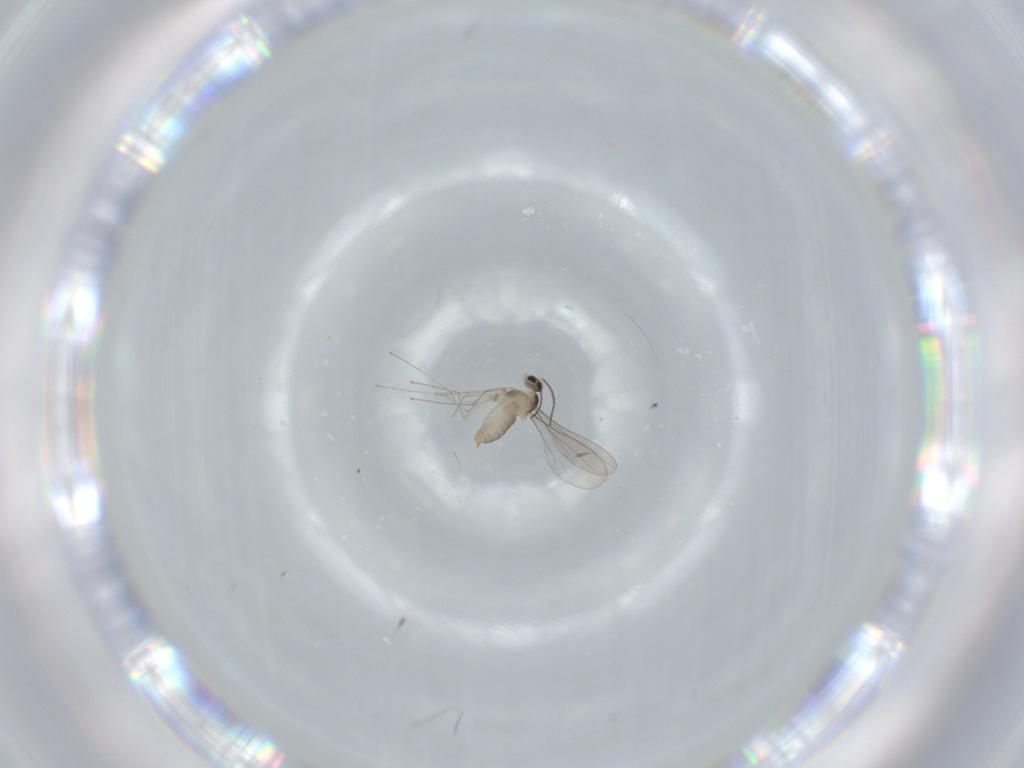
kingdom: Animalia
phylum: Arthropoda
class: Insecta
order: Diptera
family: Cecidomyiidae
